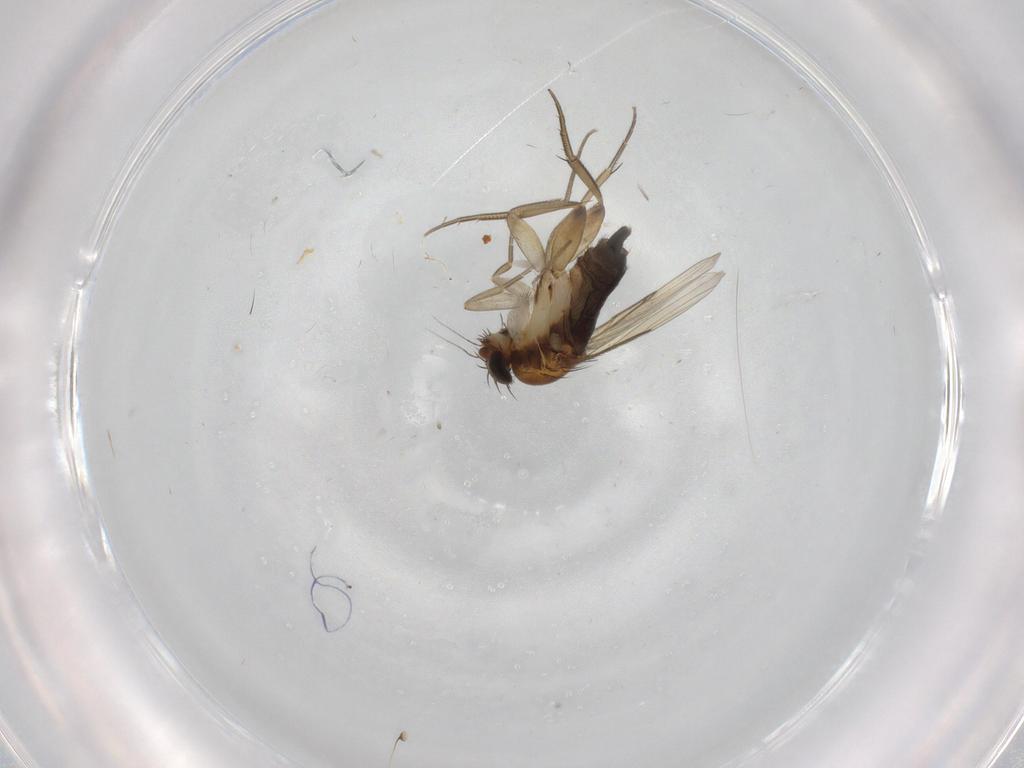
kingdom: Animalia
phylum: Arthropoda
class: Insecta
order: Diptera
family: Phoridae
